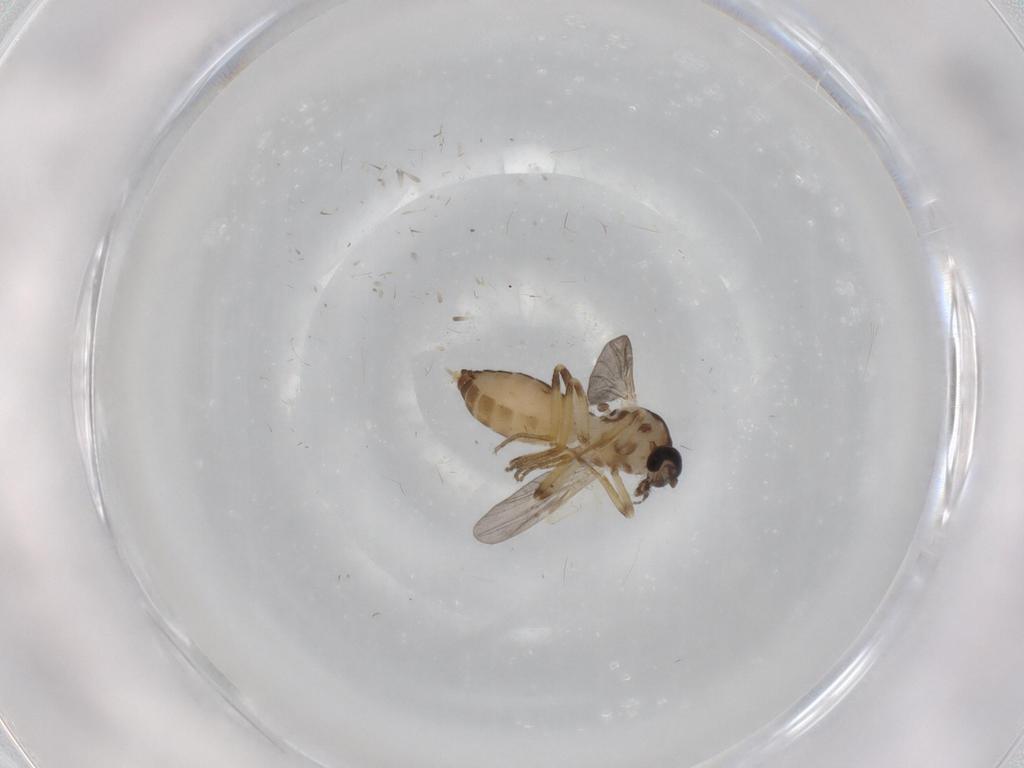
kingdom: Animalia
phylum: Arthropoda
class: Insecta
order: Diptera
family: Ceratopogonidae
